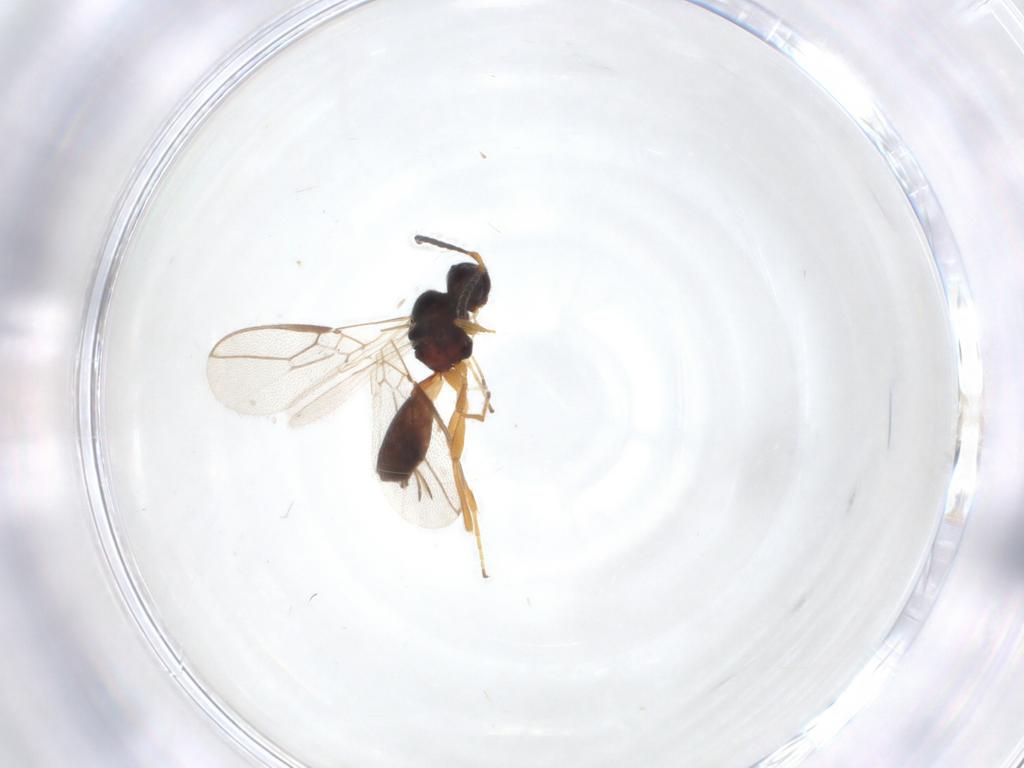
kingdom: Animalia
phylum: Arthropoda
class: Insecta
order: Hymenoptera
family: Braconidae
